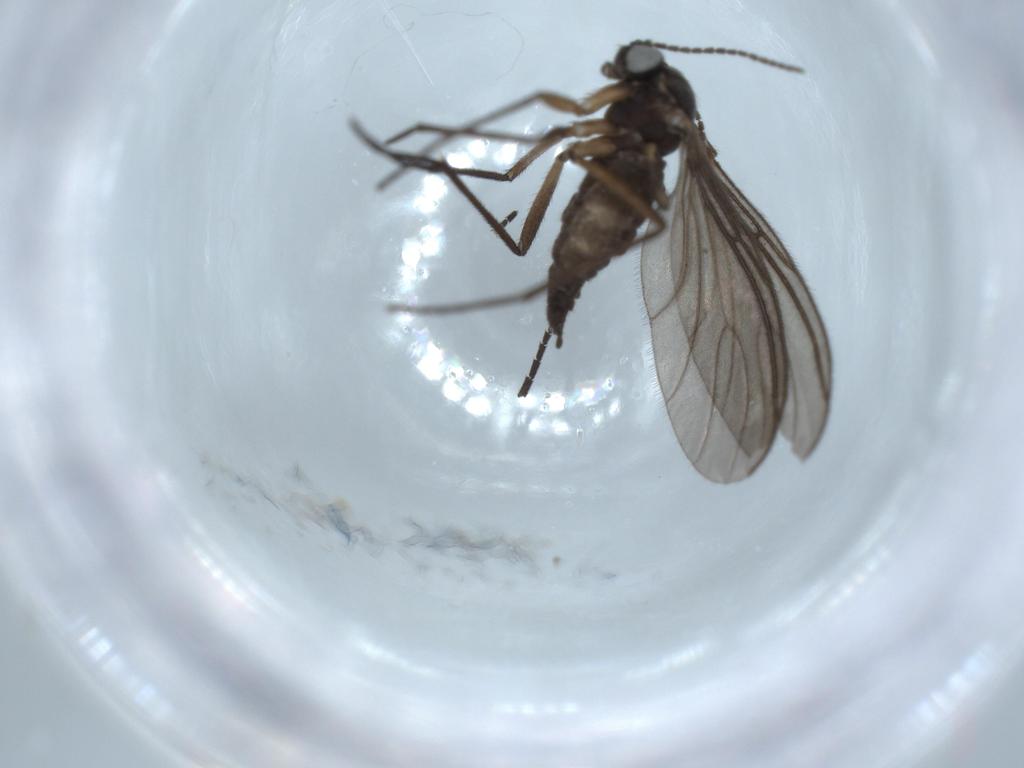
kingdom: Animalia
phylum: Arthropoda
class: Insecta
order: Diptera
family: Sciaridae
